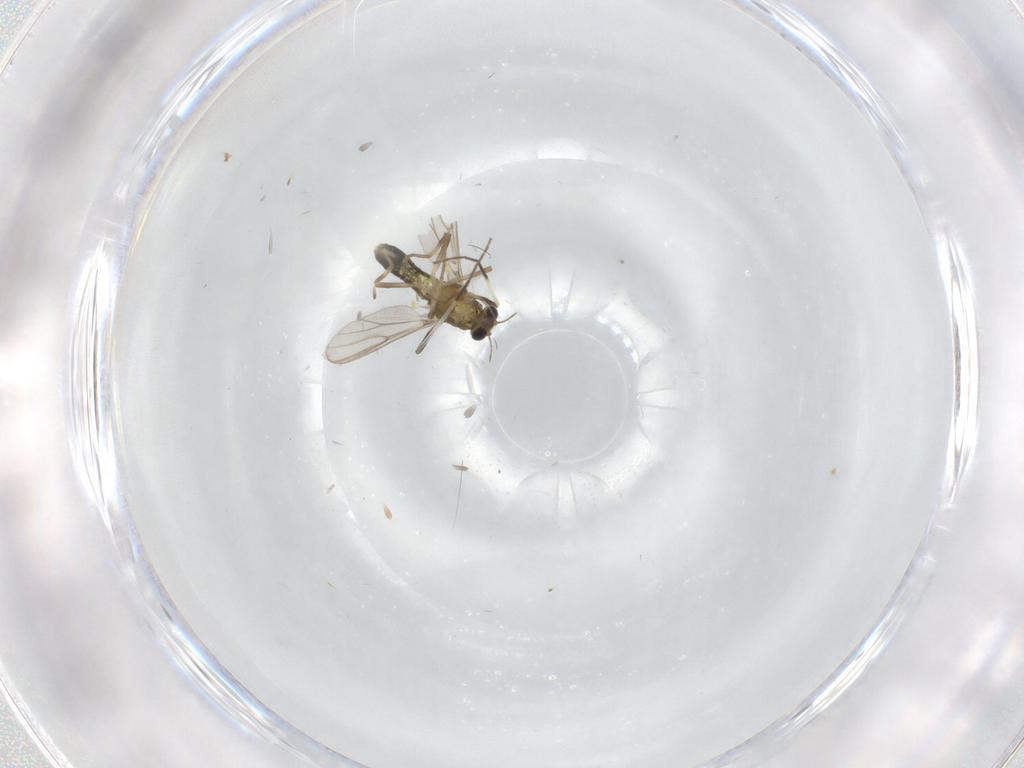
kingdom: Animalia
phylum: Arthropoda
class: Insecta
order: Diptera
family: Chironomidae
